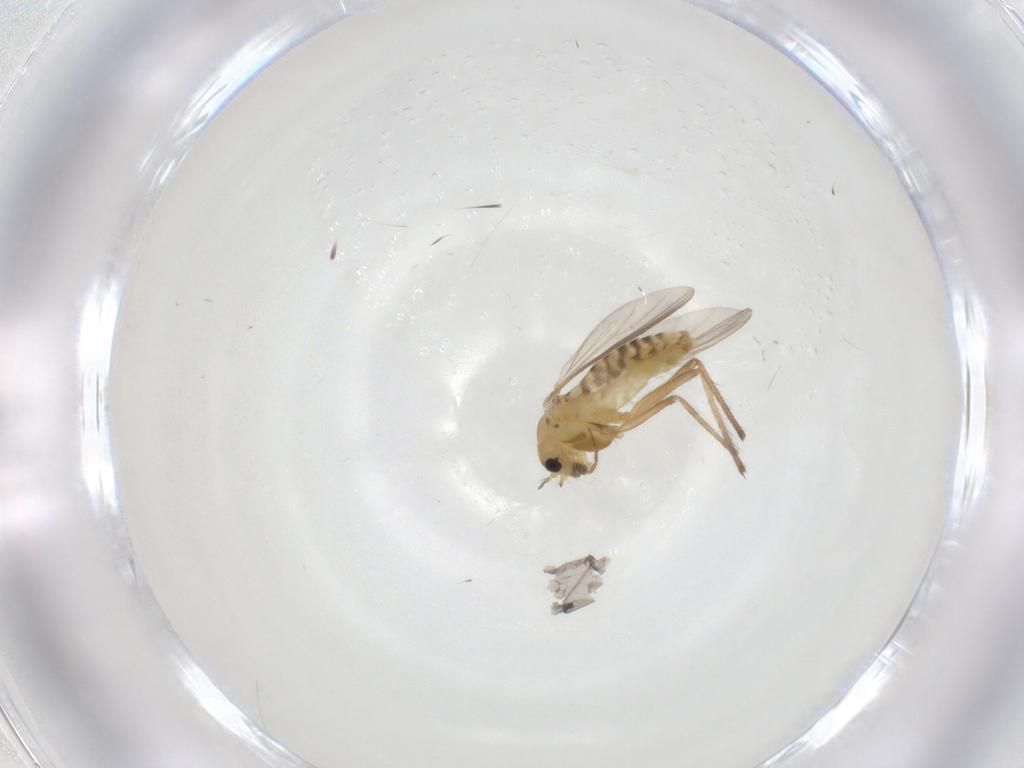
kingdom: Animalia
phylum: Arthropoda
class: Insecta
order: Diptera
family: Chironomidae
